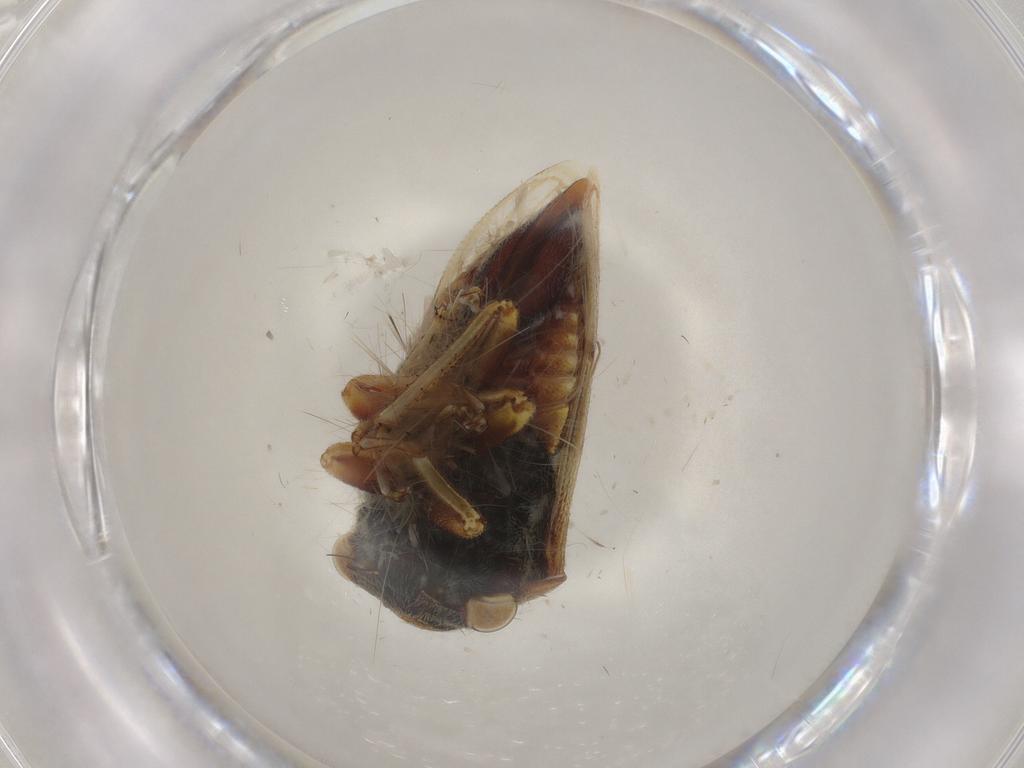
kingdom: Animalia
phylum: Arthropoda
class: Insecta
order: Hemiptera
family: Membracidae
